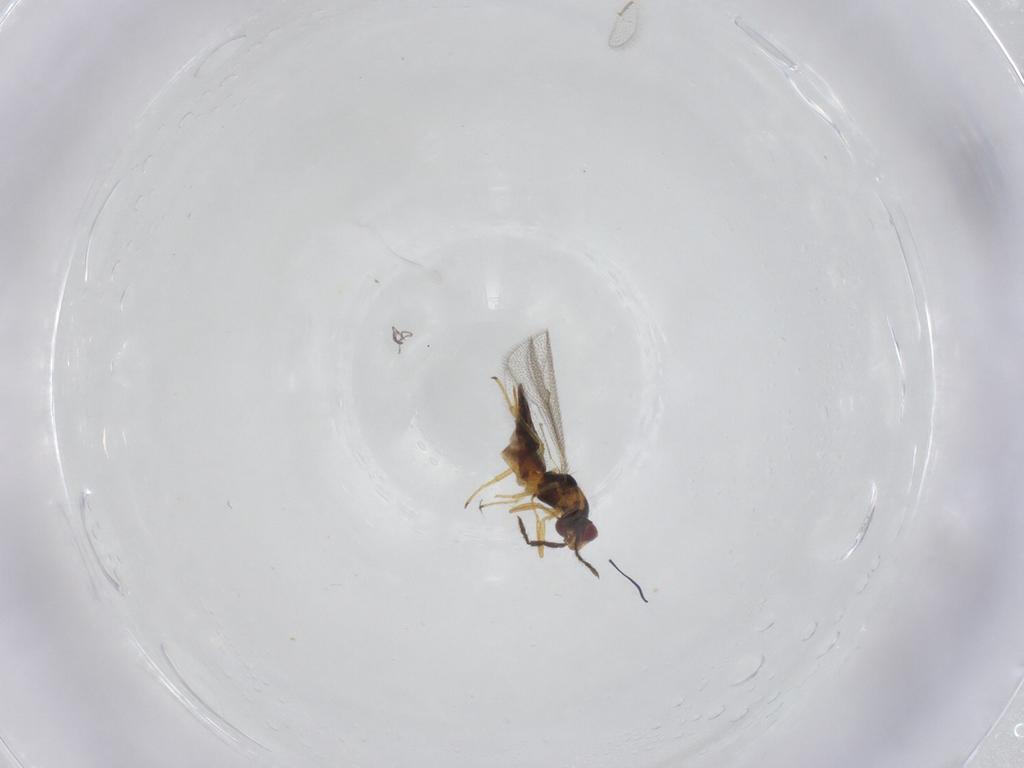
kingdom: Animalia
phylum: Arthropoda
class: Insecta
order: Hymenoptera
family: Eulophidae
